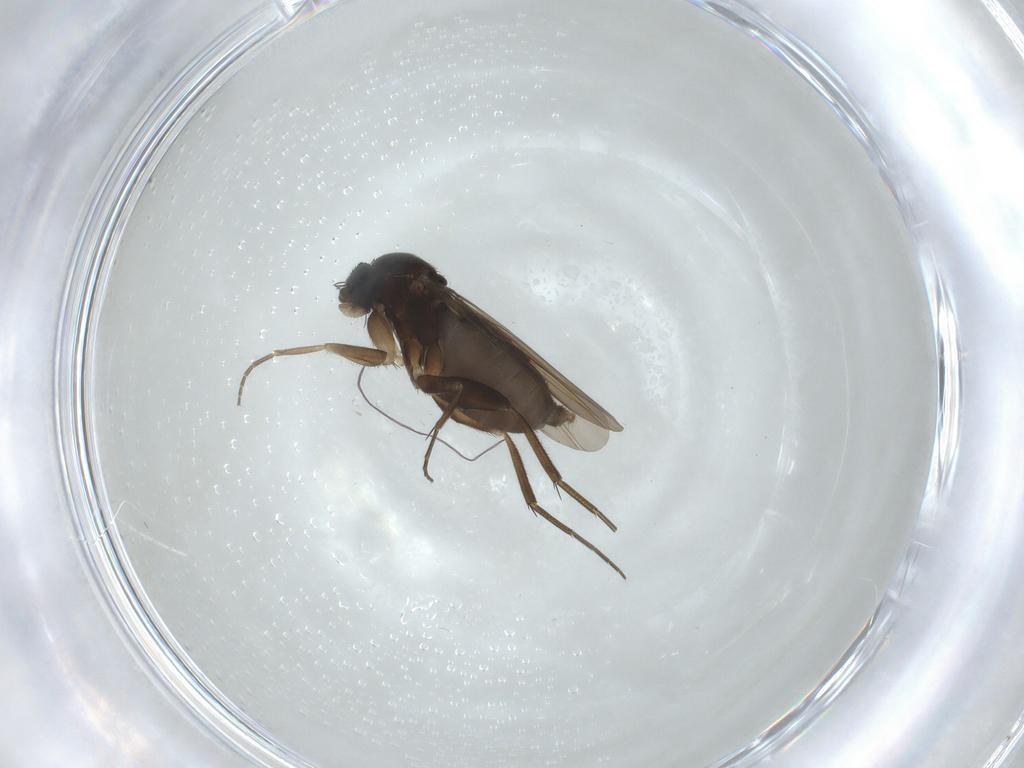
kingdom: Animalia
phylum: Arthropoda
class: Insecta
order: Diptera
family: Phoridae
